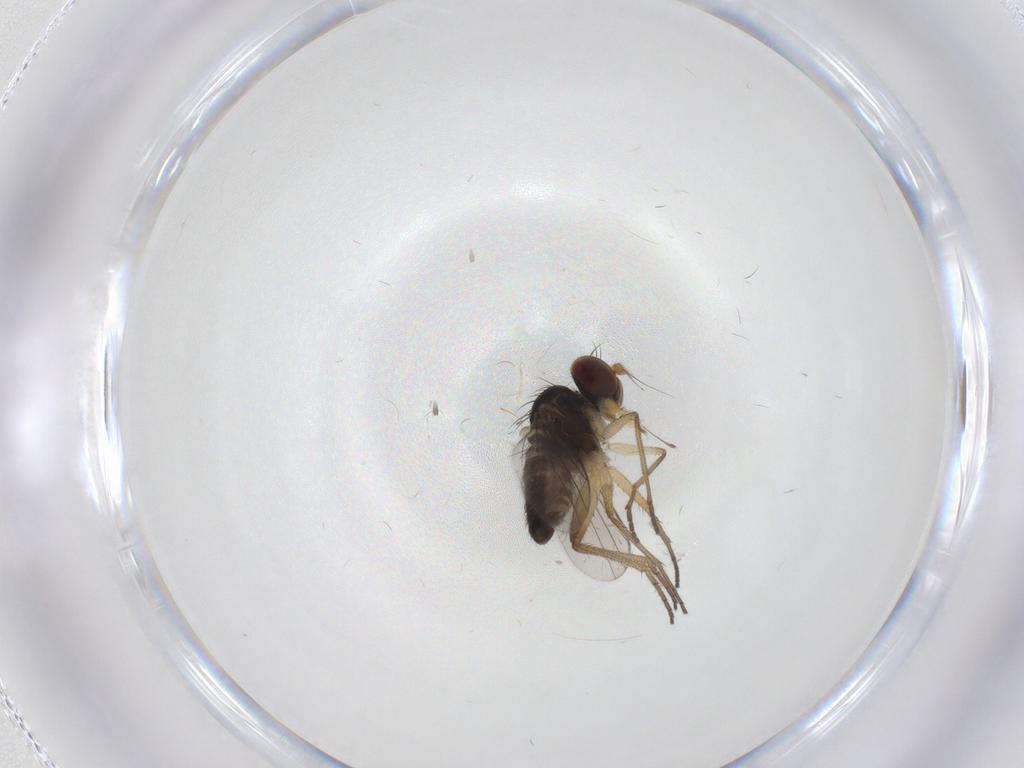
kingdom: Animalia
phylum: Arthropoda
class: Insecta
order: Diptera
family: Dolichopodidae
